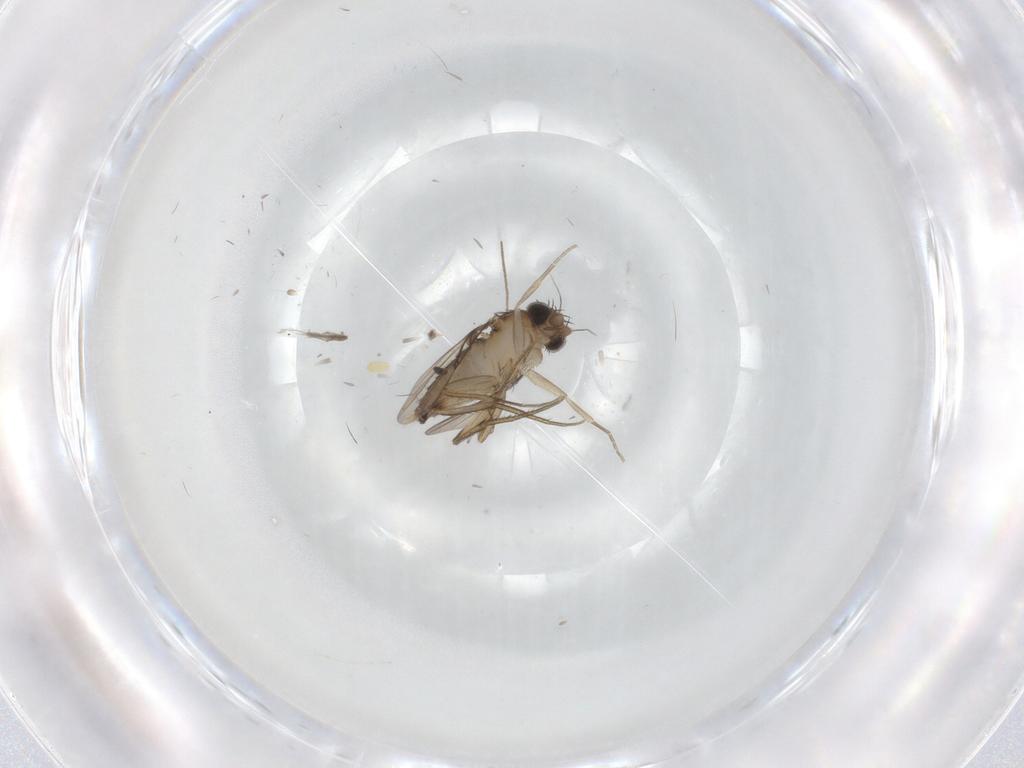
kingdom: Animalia
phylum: Arthropoda
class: Insecta
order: Diptera
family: Phoridae
